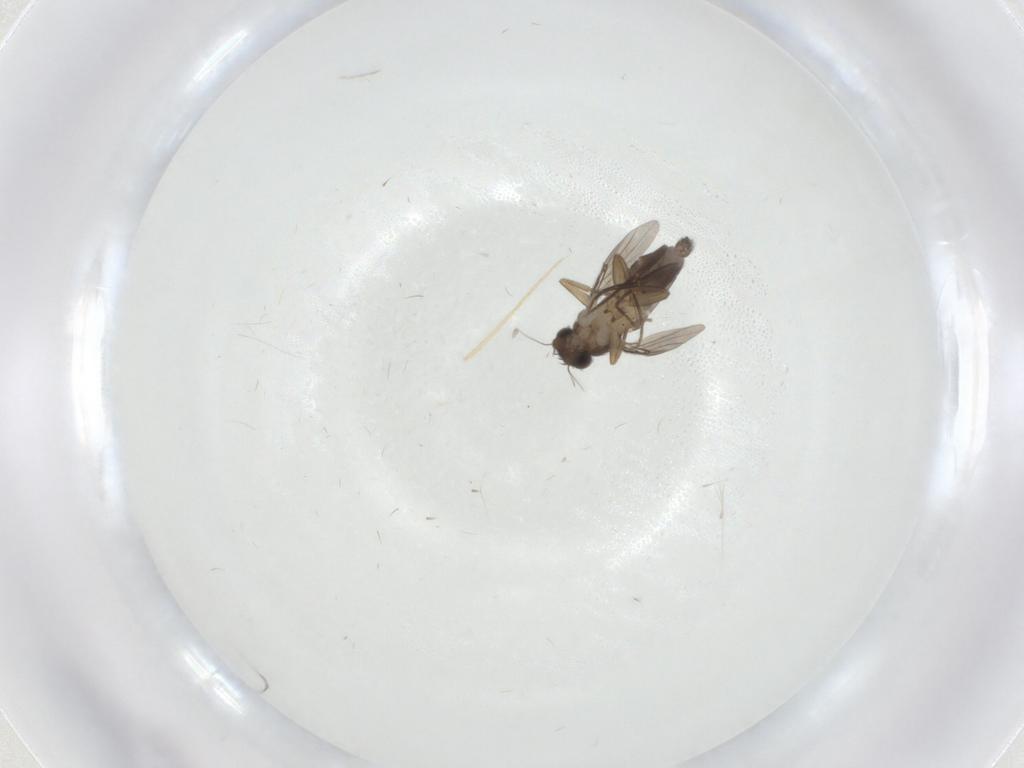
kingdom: Animalia
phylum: Arthropoda
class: Insecta
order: Diptera
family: Phoridae
